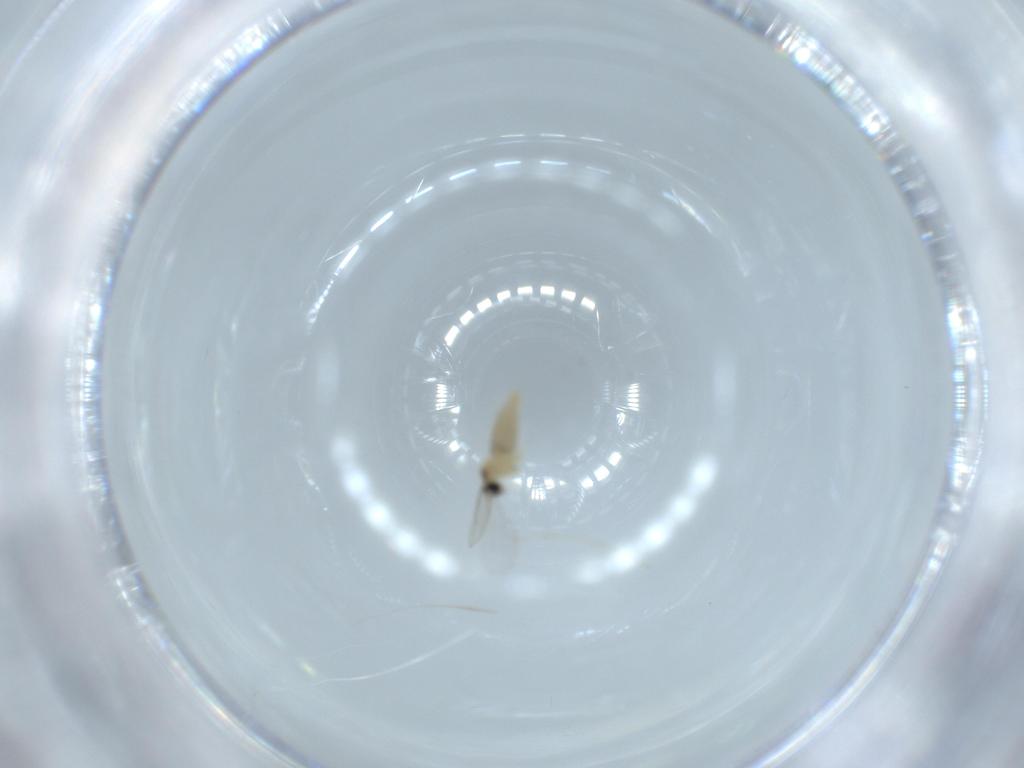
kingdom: Animalia
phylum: Arthropoda
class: Insecta
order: Diptera
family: Chironomidae
